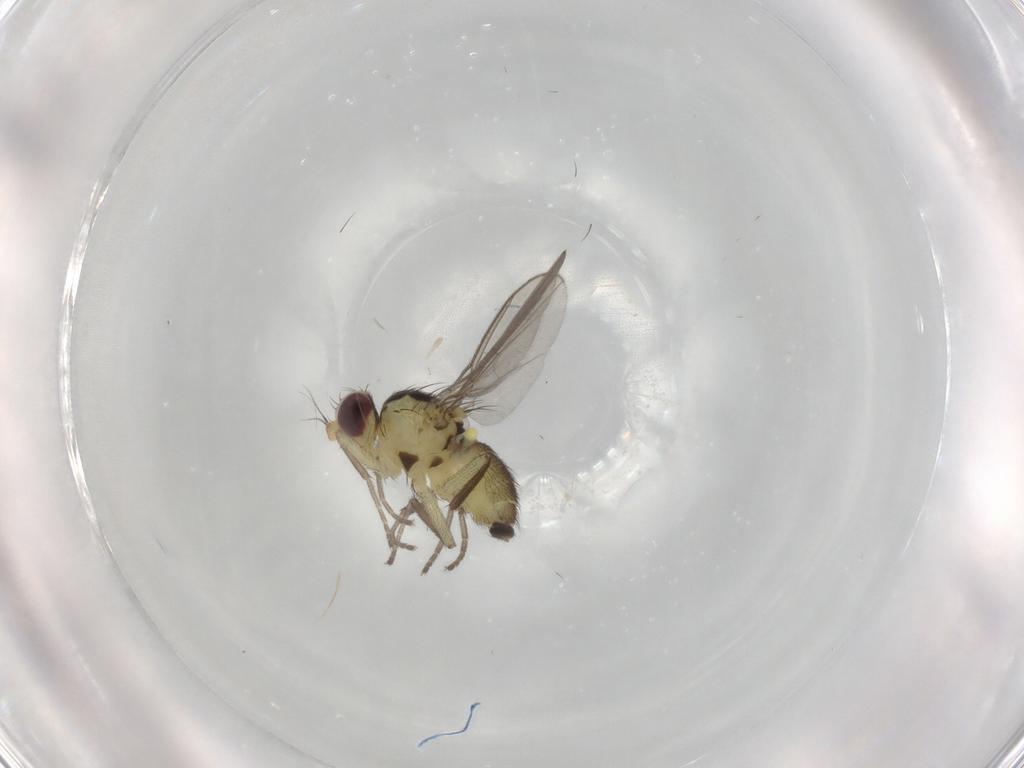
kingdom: Animalia
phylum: Arthropoda
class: Insecta
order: Diptera
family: Agromyzidae
